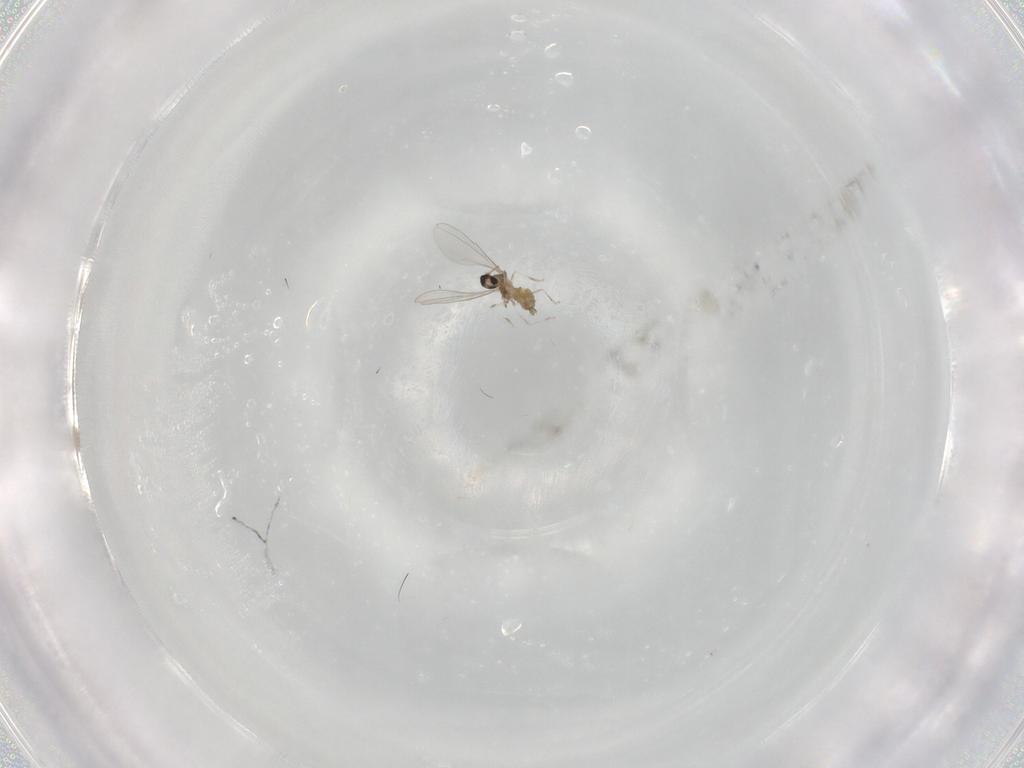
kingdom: Animalia
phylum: Arthropoda
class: Insecta
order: Diptera
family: Cecidomyiidae
